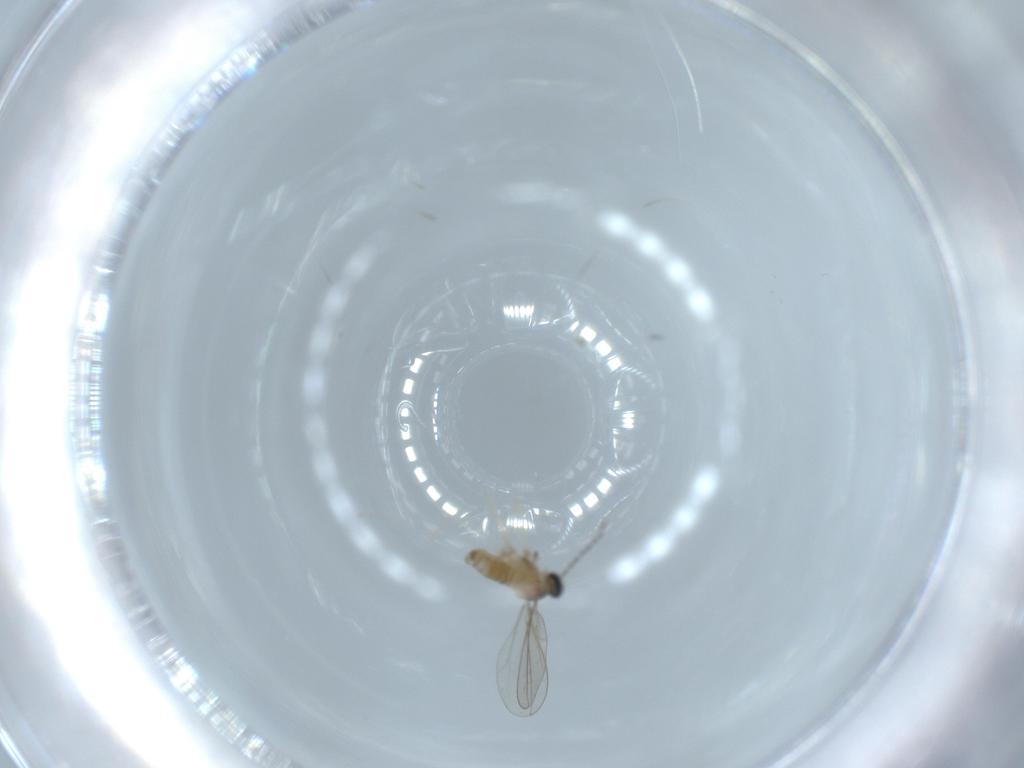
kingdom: Animalia
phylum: Arthropoda
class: Insecta
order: Diptera
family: Cecidomyiidae
